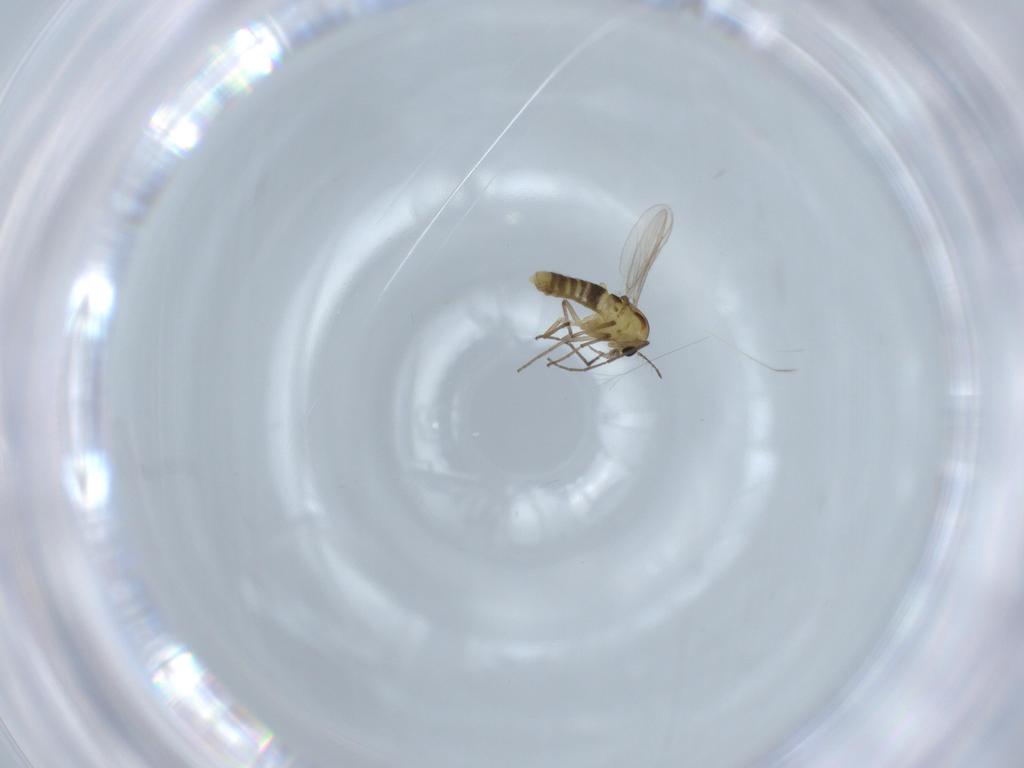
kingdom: Animalia
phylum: Arthropoda
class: Insecta
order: Diptera
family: Chironomidae
